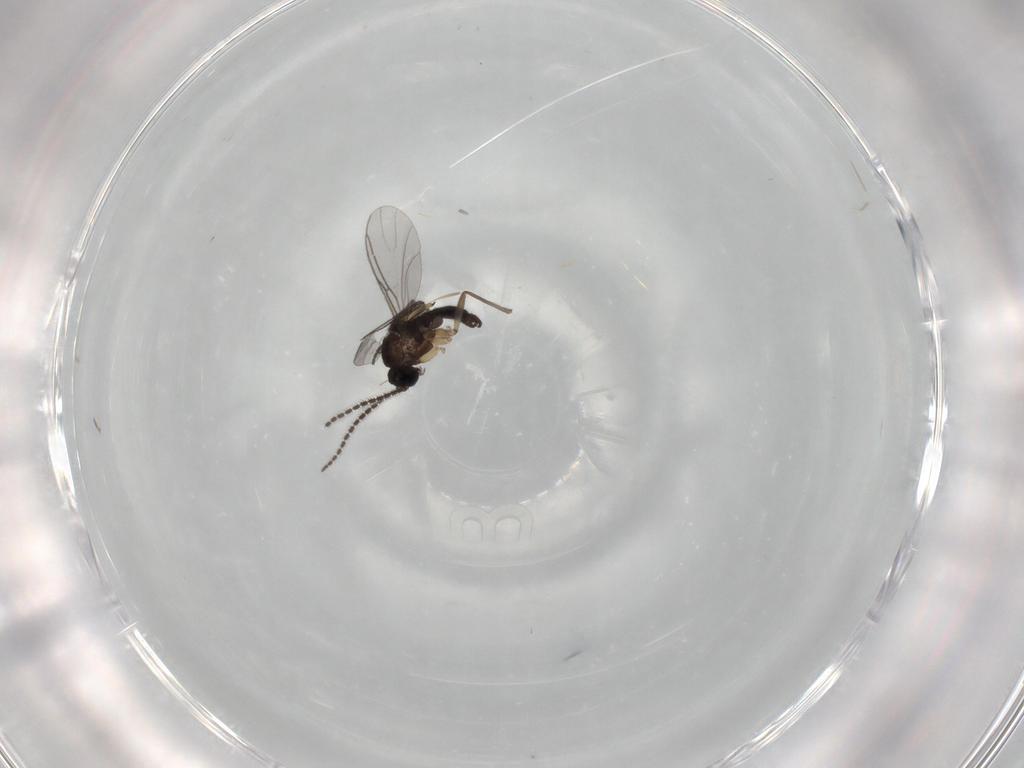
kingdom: Animalia
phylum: Arthropoda
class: Insecta
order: Diptera
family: Sciaridae
